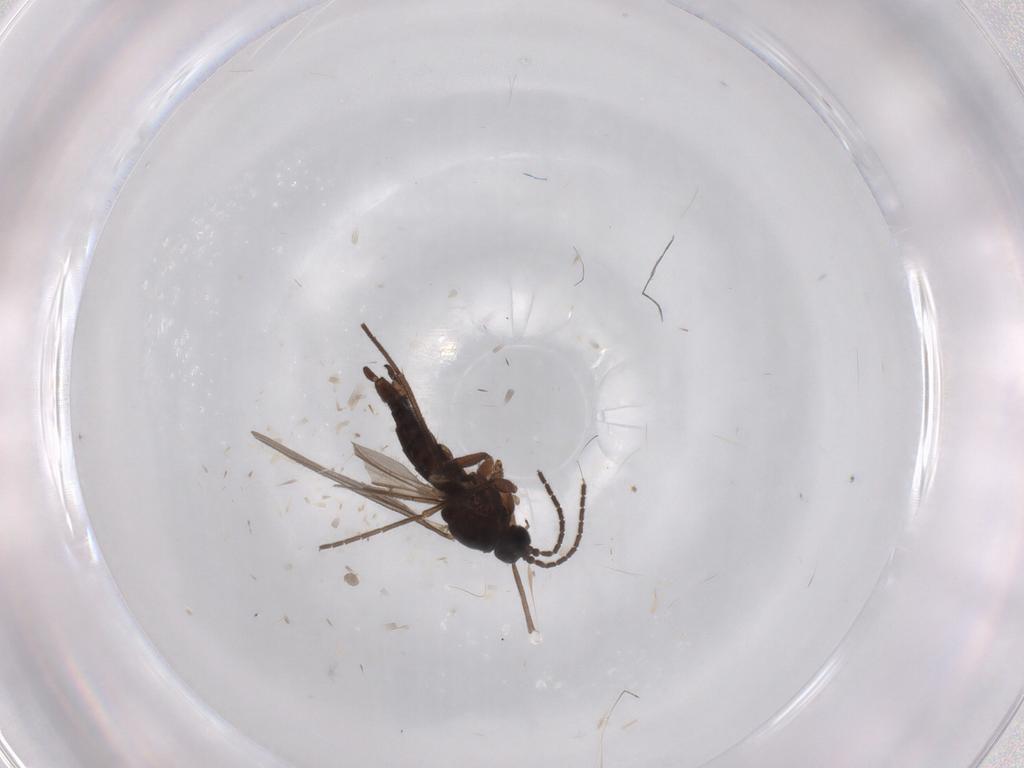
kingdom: Animalia
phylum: Arthropoda
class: Insecta
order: Diptera
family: Sciaridae
